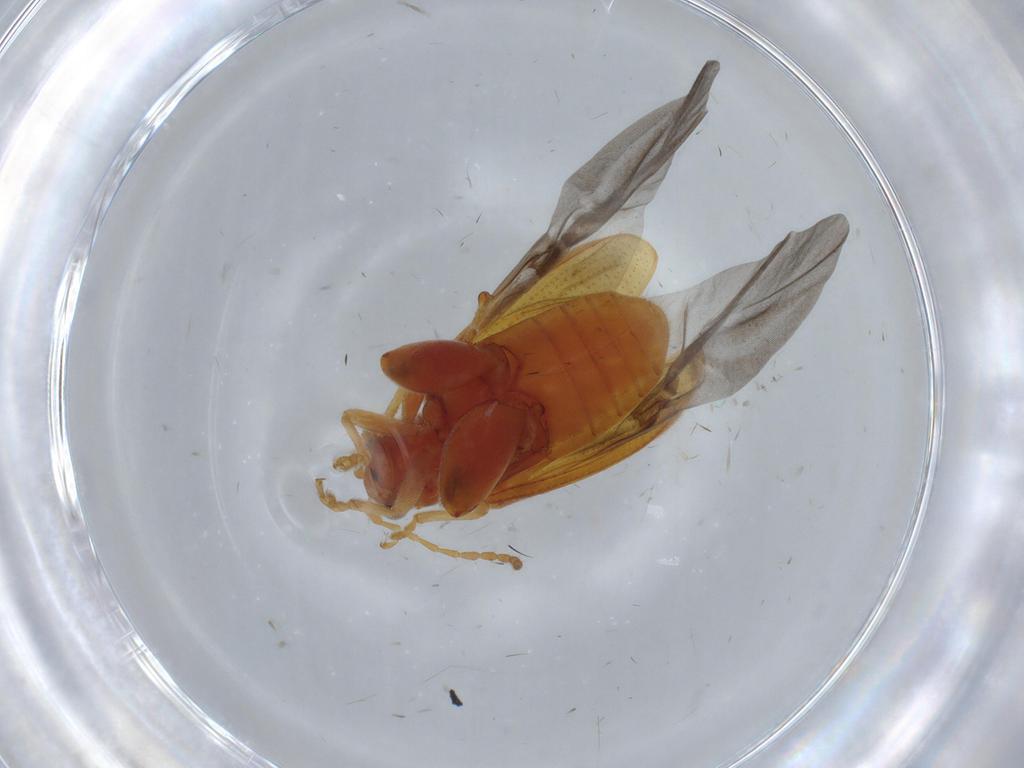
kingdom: Animalia
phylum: Arthropoda
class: Insecta
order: Coleoptera
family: Chrysomelidae
